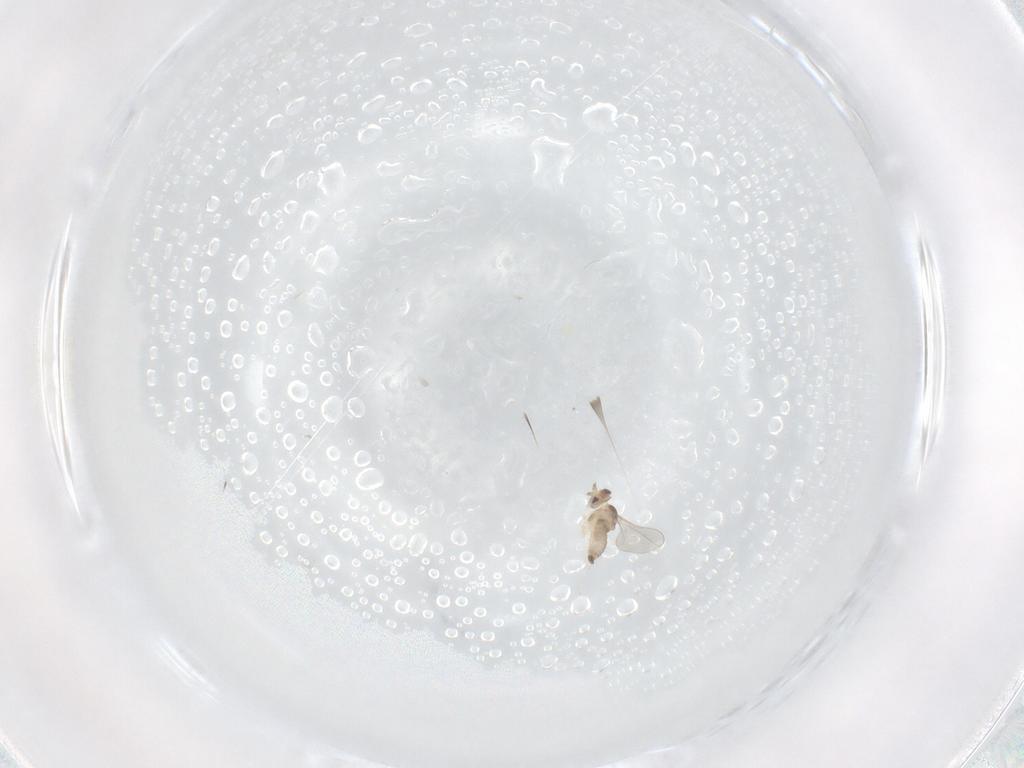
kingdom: Animalia
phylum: Arthropoda
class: Insecta
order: Diptera
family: Cecidomyiidae
